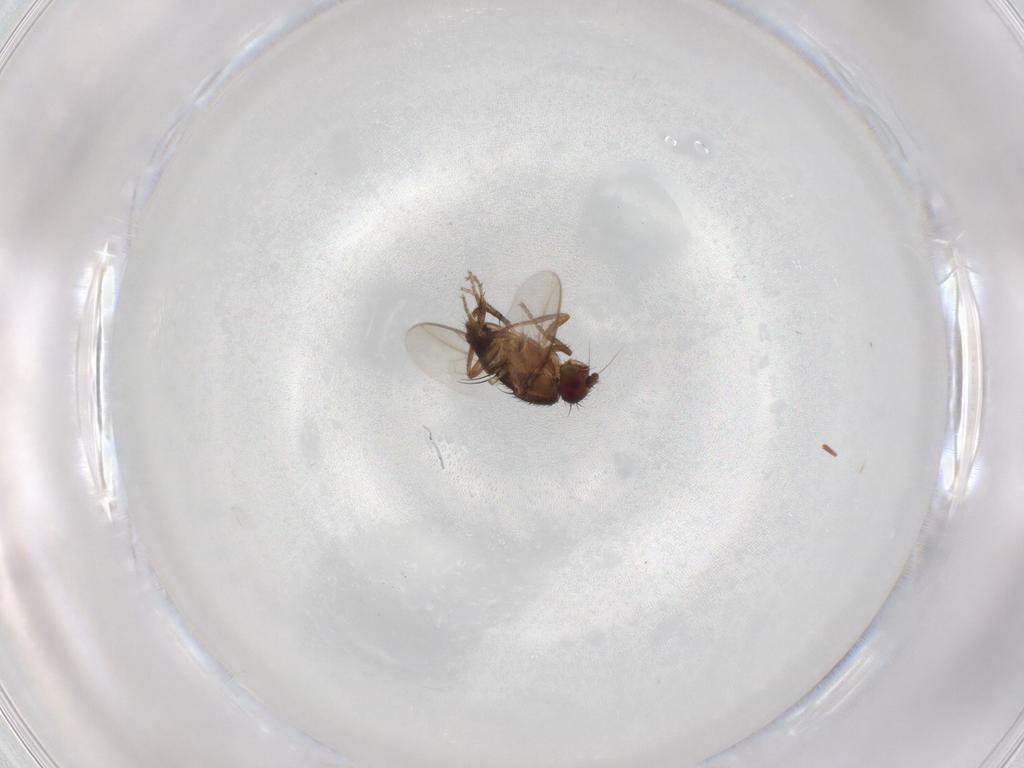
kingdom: Animalia
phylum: Arthropoda
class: Insecta
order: Diptera
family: Sphaeroceridae
